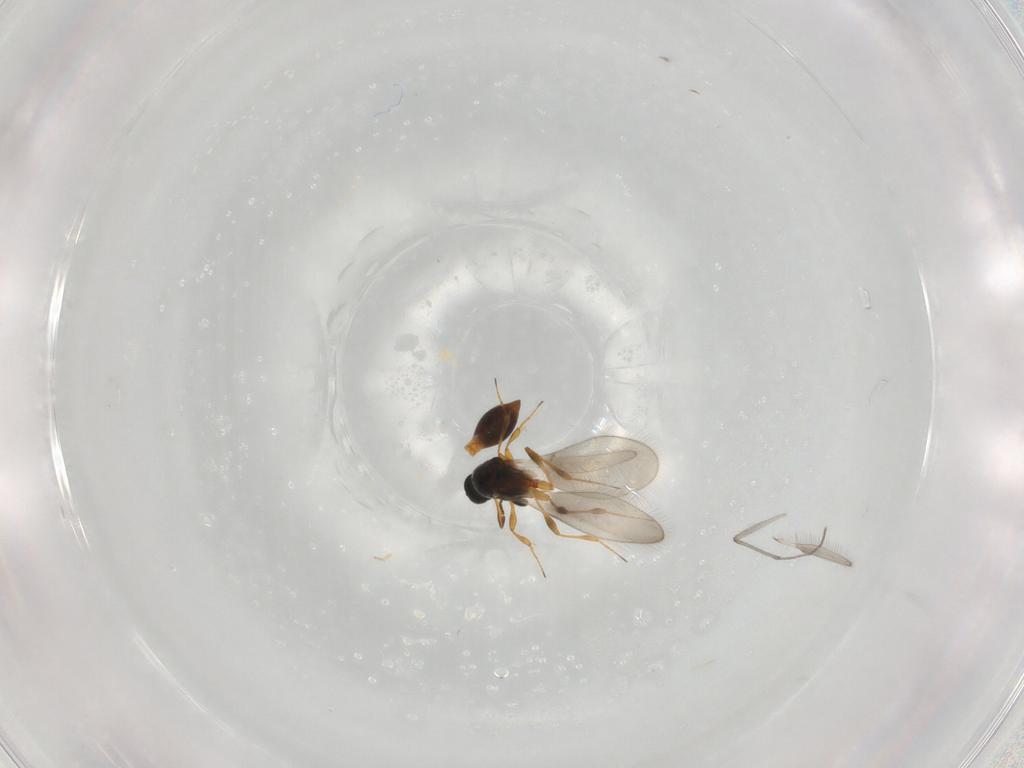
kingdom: Animalia
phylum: Arthropoda
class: Insecta
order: Hymenoptera
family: Platygastridae
